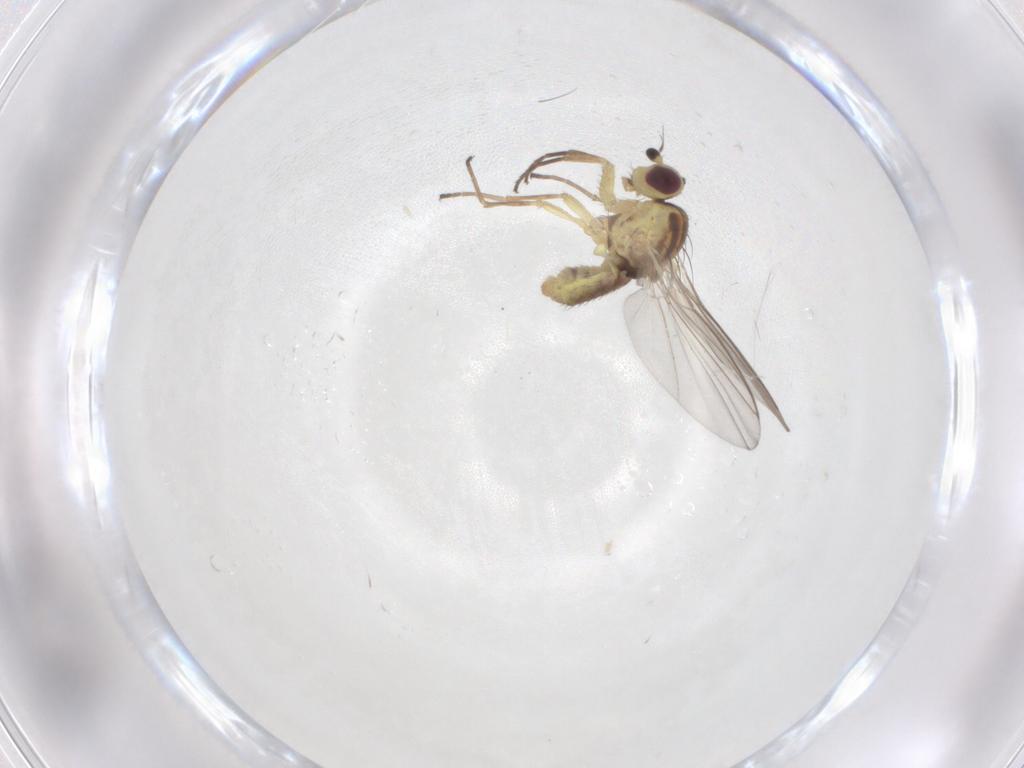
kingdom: Animalia
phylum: Arthropoda
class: Insecta
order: Diptera
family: Agromyzidae
